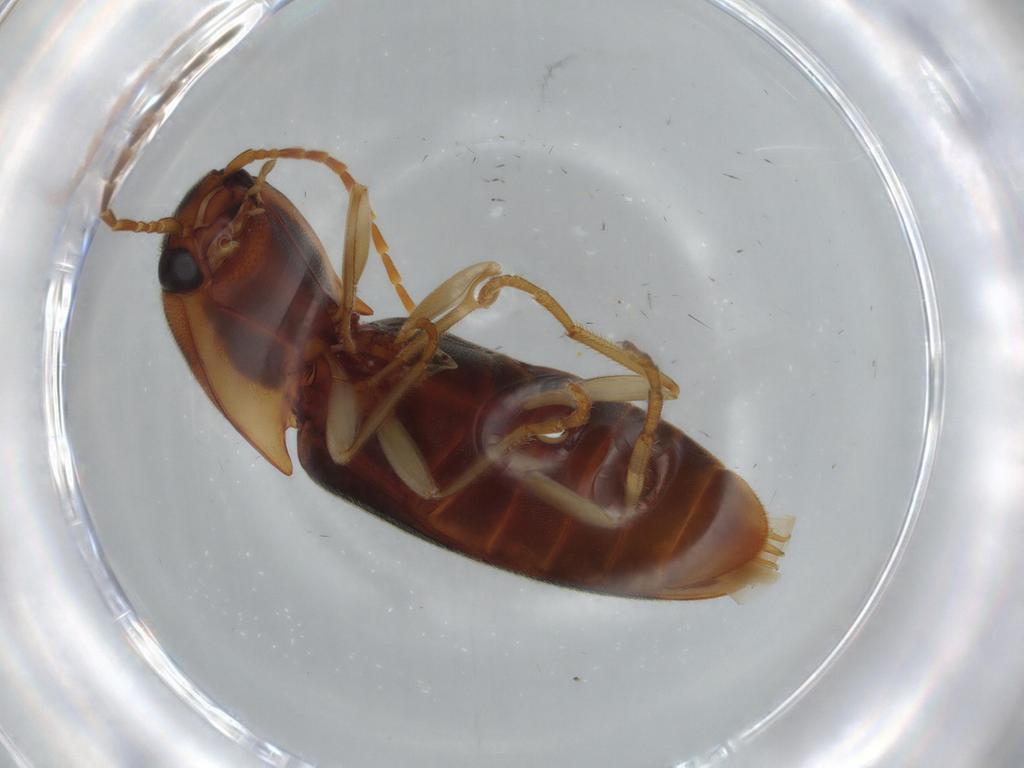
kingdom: Animalia
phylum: Arthropoda
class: Insecta
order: Coleoptera
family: Elateridae
